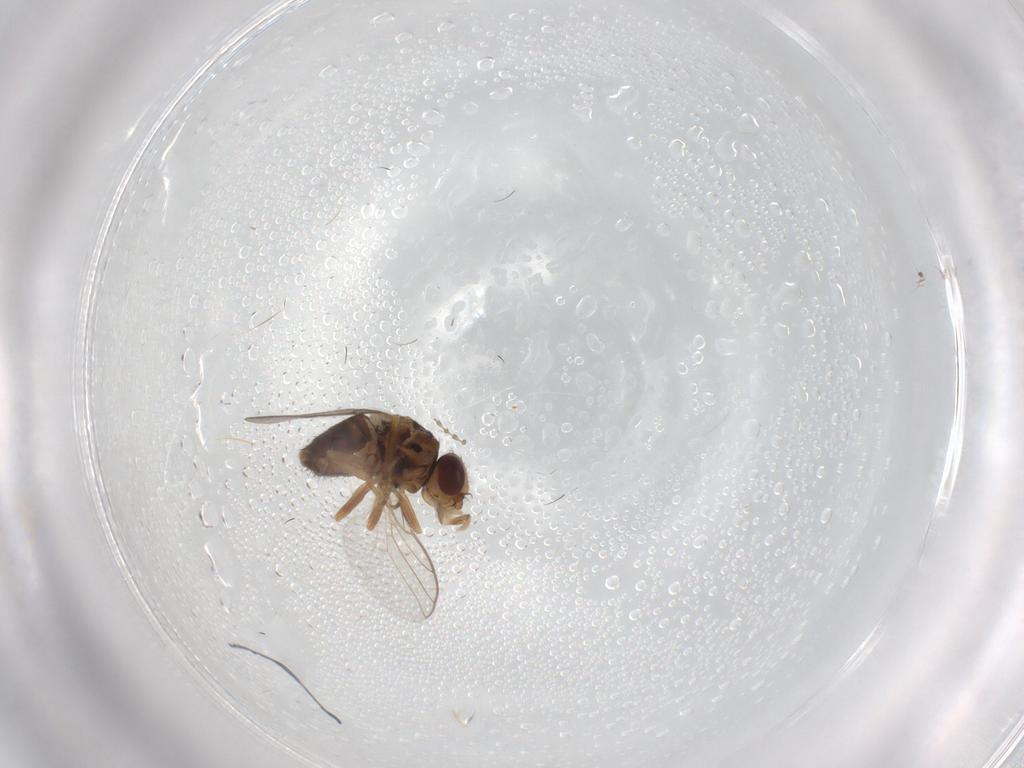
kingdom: Animalia
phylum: Arthropoda
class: Insecta
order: Diptera
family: Chloropidae
